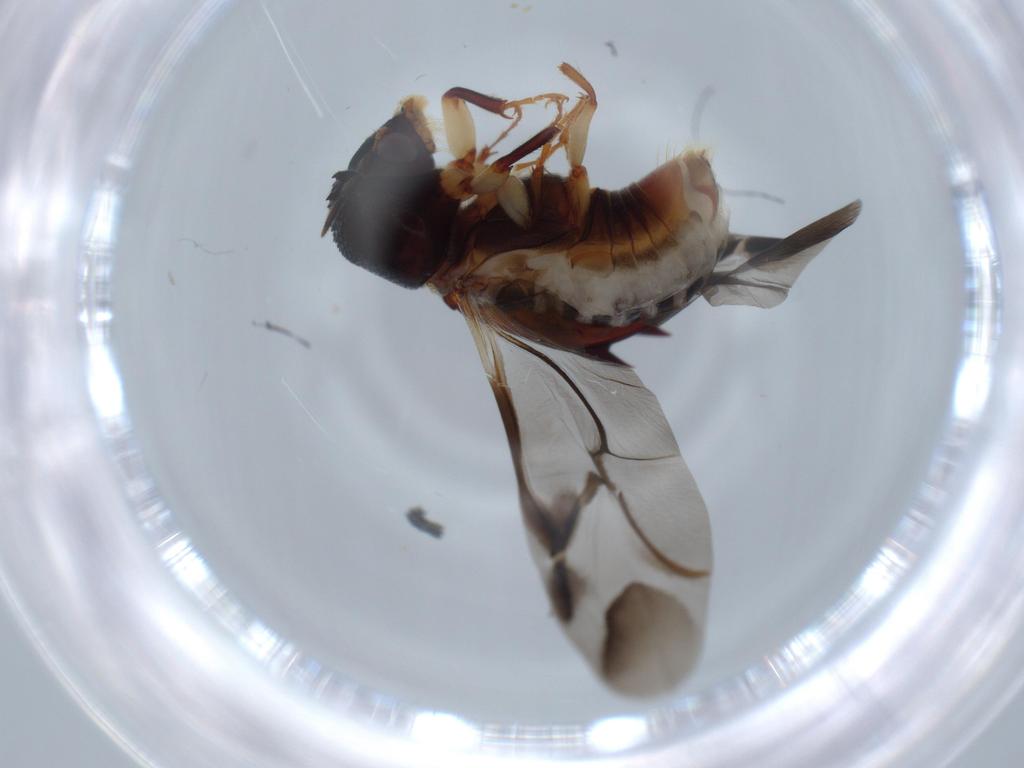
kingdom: Animalia
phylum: Arthropoda
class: Insecta
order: Coleoptera
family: Bostrichidae
